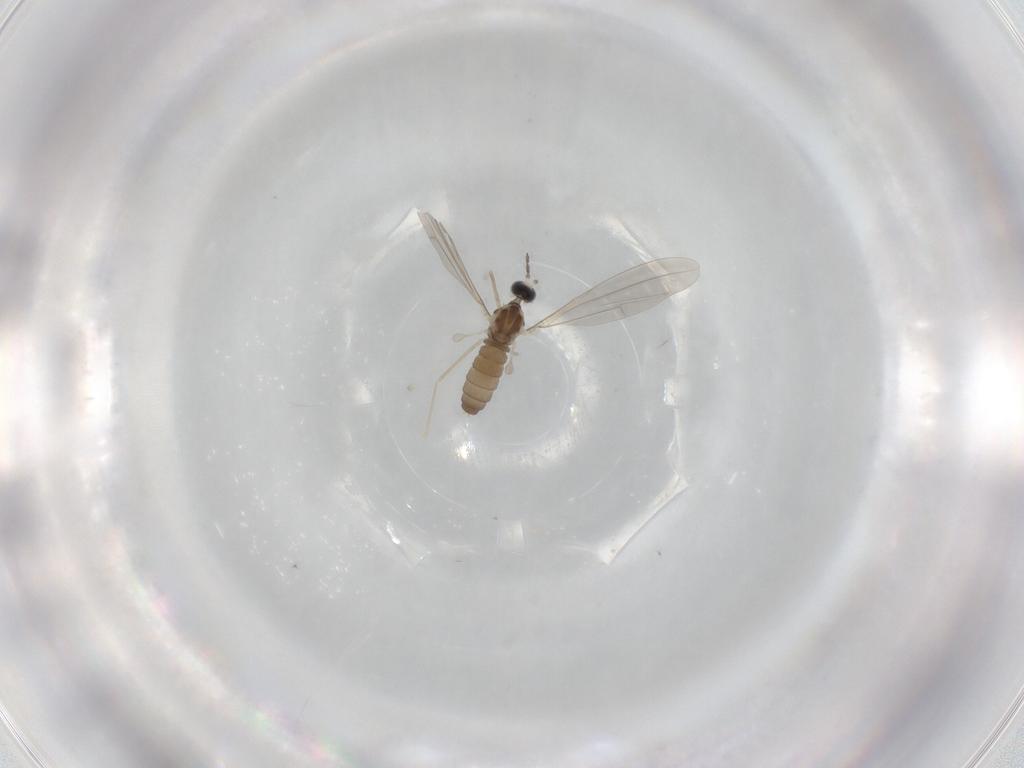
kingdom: Animalia
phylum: Arthropoda
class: Insecta
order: Diptera
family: Cecidomyiidae
